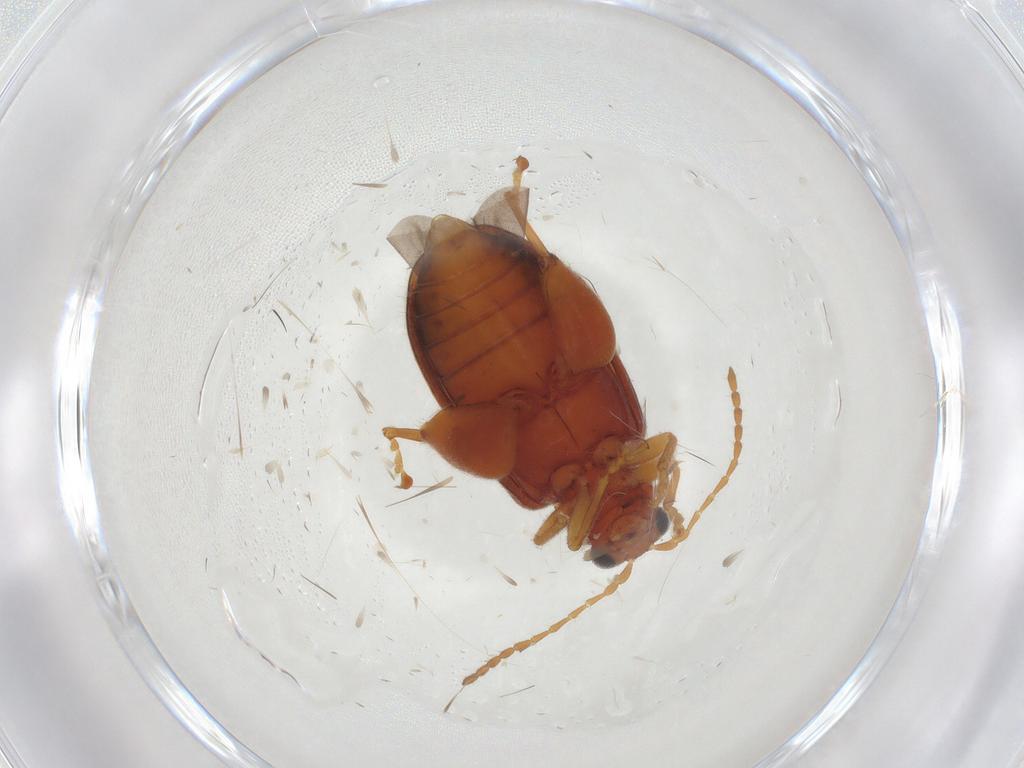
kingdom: Animalia
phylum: Arthropoda
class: Insecta
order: Coleoptera
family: Chrysomelidae
